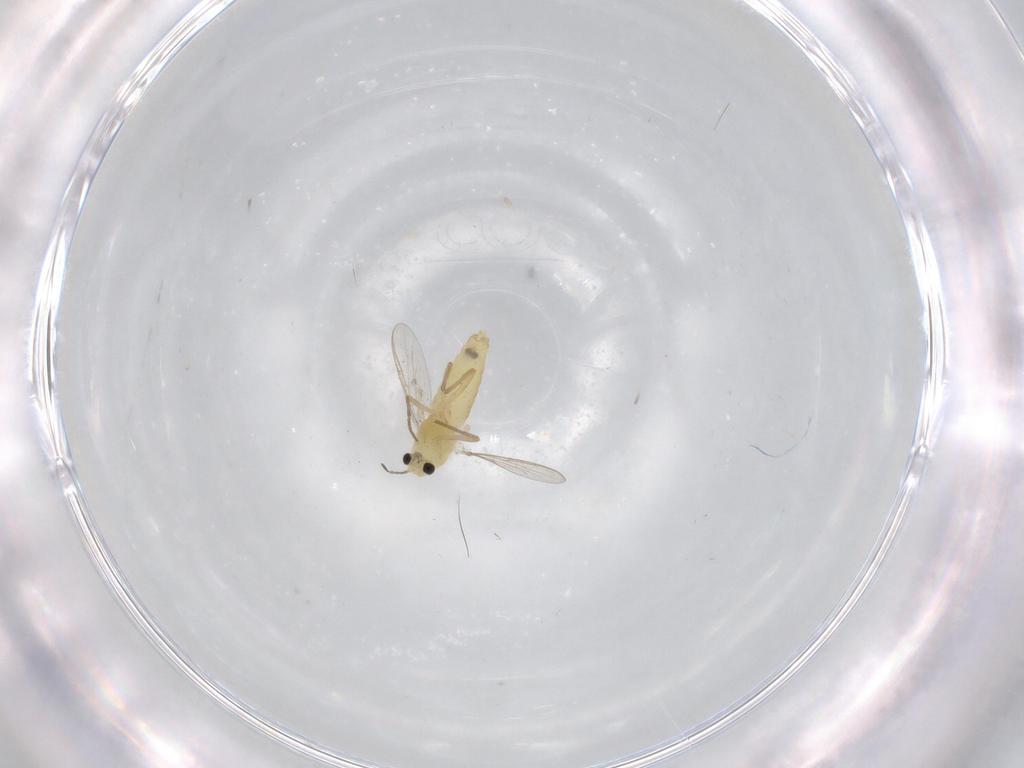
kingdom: Animalia
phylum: Arthropoda
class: Insecta
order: Diptera
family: Chironomidae
